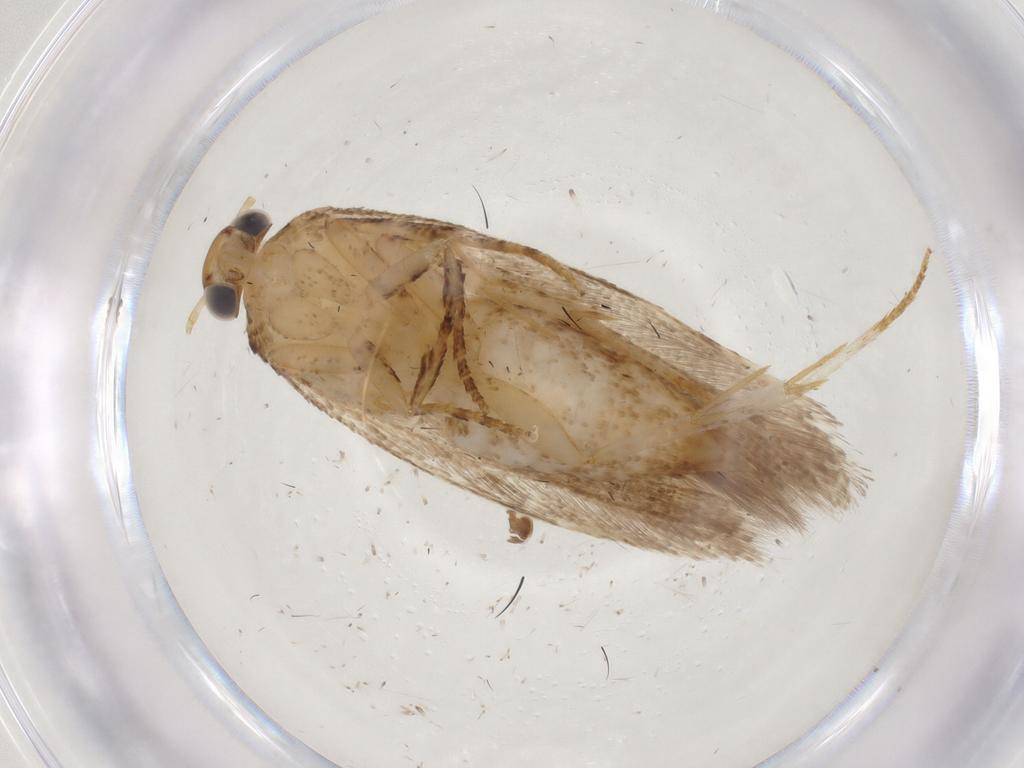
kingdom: Animalia
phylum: Arthropoda
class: Insecta
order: Lepidoptera
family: Gelechiidae
